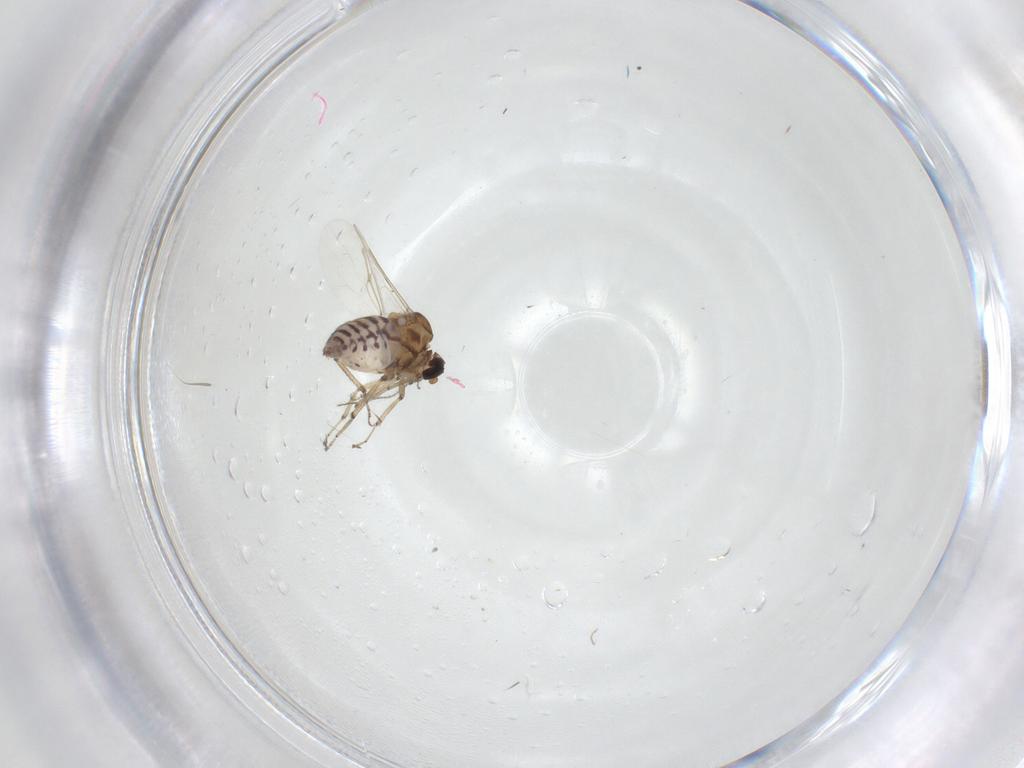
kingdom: Animalia
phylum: Arthropoda
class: Insecta
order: Diptera
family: Ceratopogonidae
